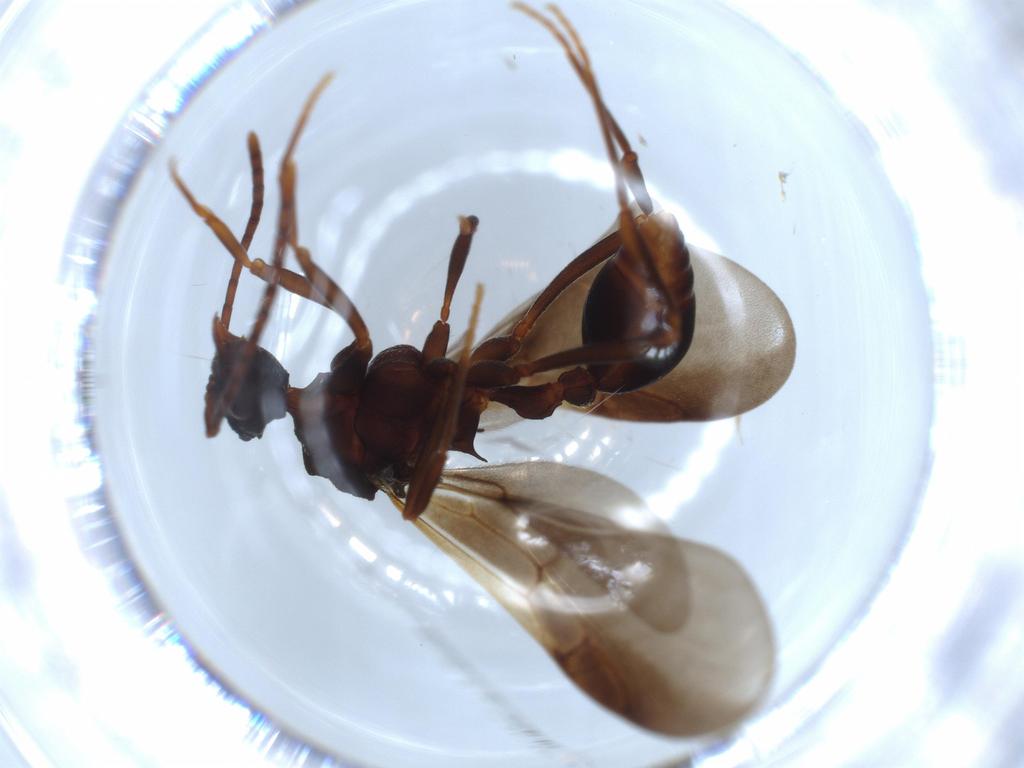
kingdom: Animalia
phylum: Arthropoda
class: Insecta
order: Hymenoptera
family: Formicidae
